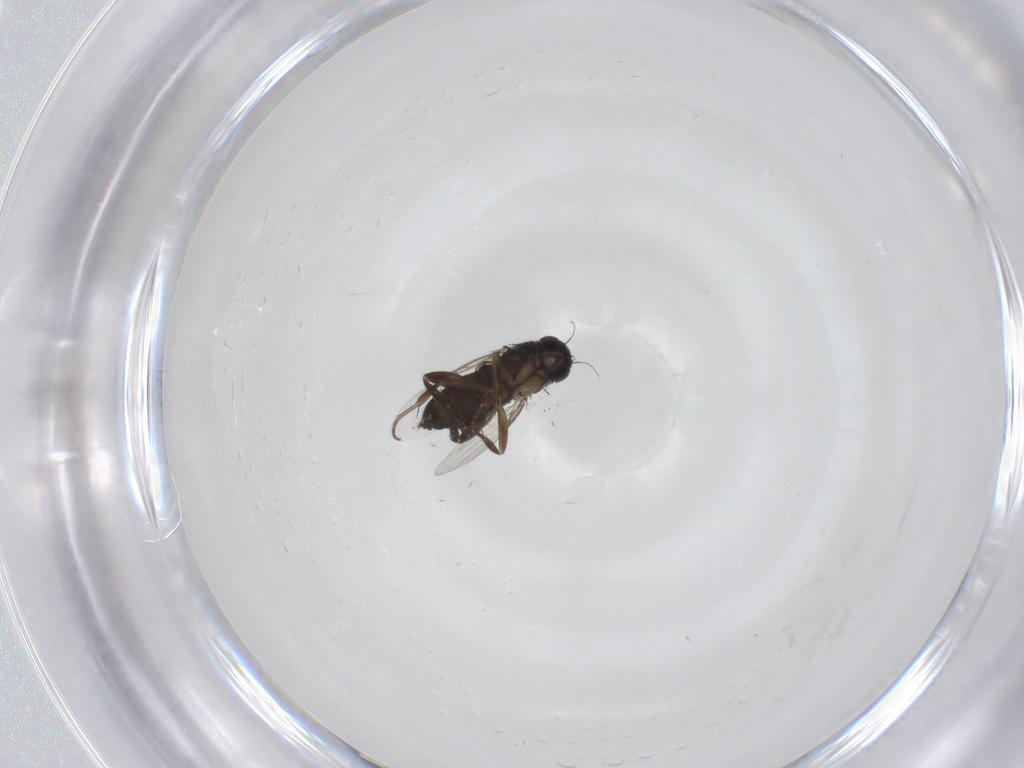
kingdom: Animalia
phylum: Arthropoda
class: Insecta
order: Diptera
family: Phoridae
